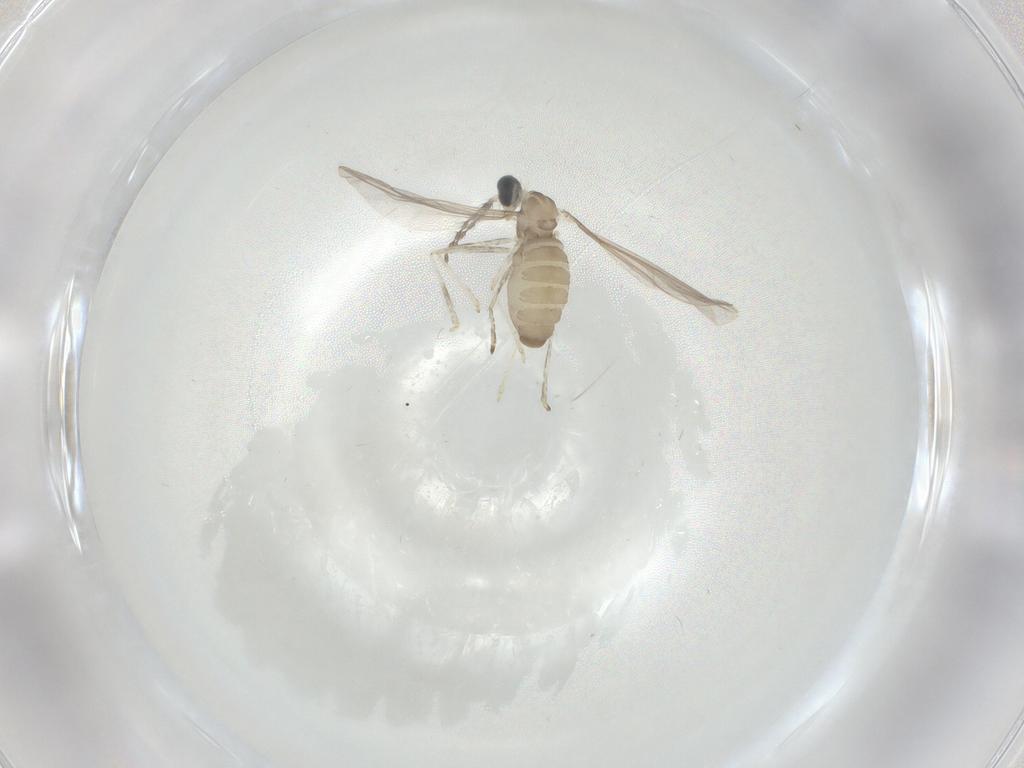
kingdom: Animalia
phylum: Arthropoda
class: Insecta
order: Diptera
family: Cecidomyiidae
